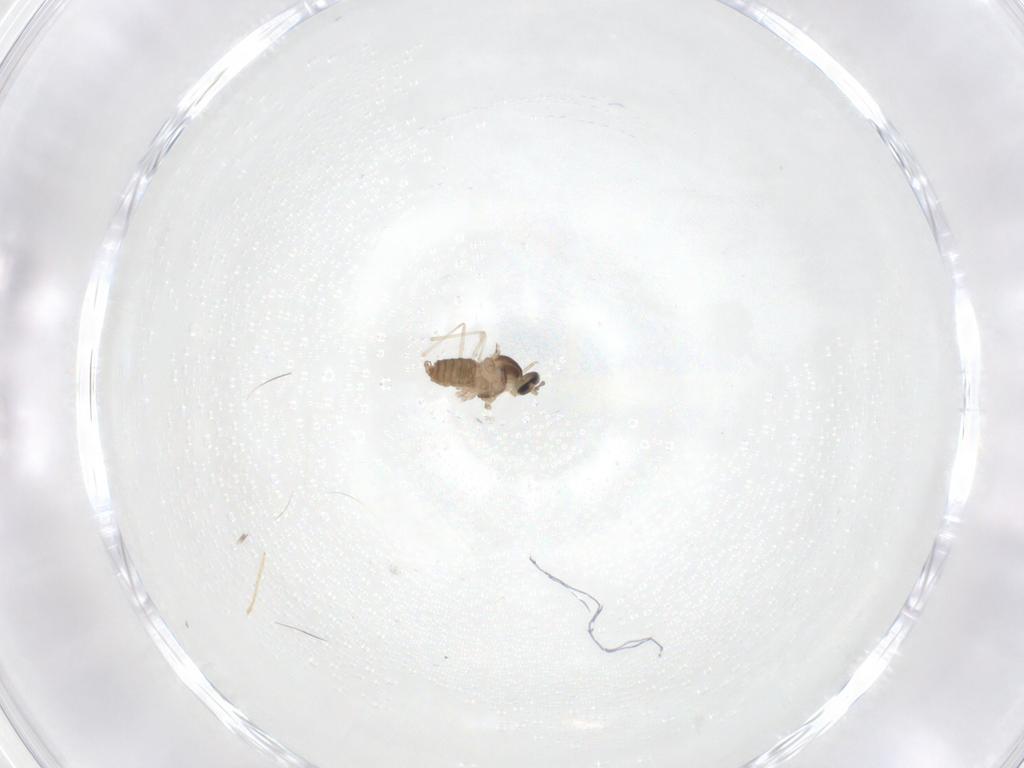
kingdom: Animalia
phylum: Arthropoda
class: Insecta
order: Diptera
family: Cecidomyiidae
